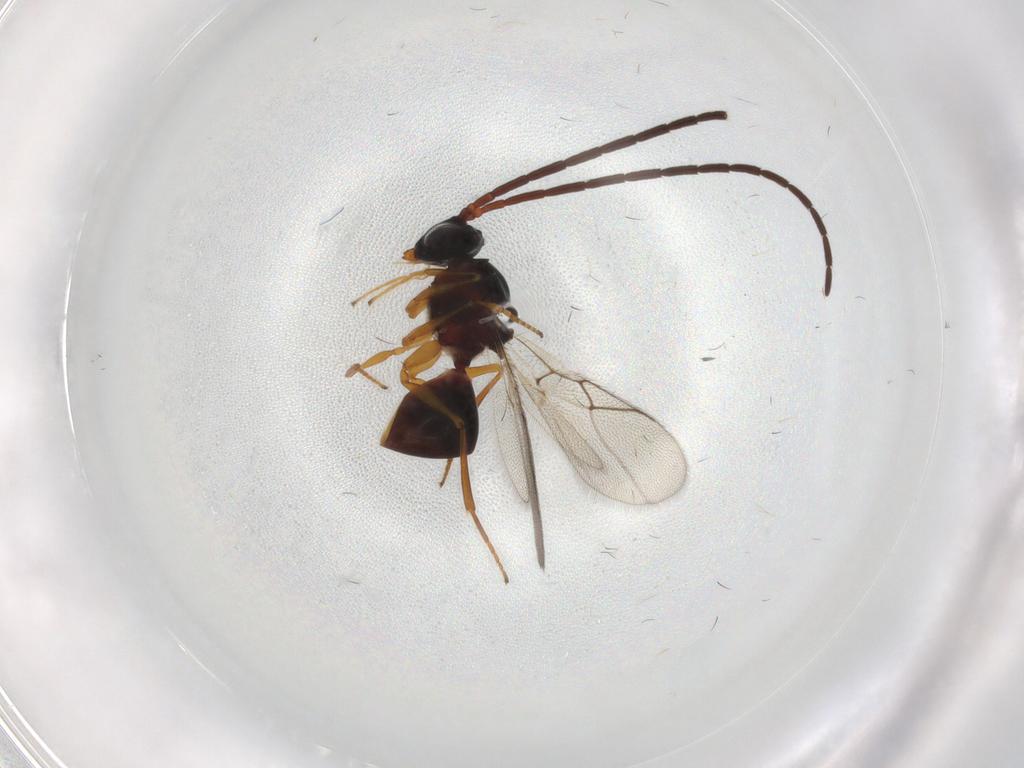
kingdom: Animalia
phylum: Arthropoda
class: Insecta
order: Hymenoptera
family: Figitidae
